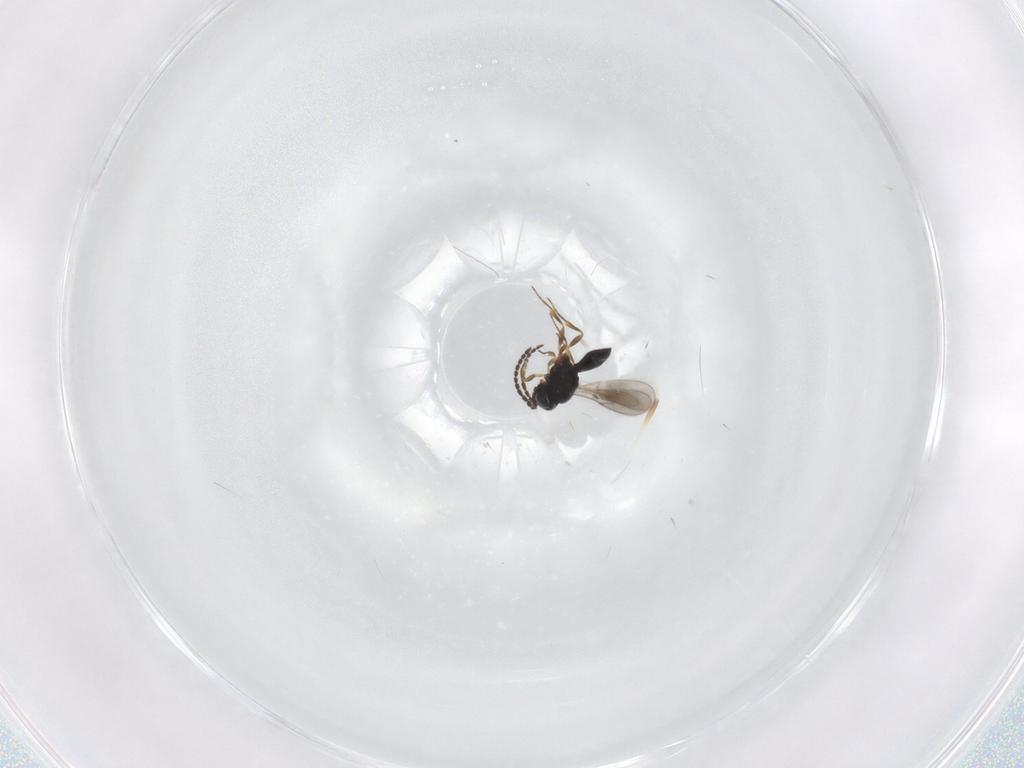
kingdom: Animalia
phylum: Arthropoda
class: Insecta
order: Hymenoptera
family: Scelionidae
